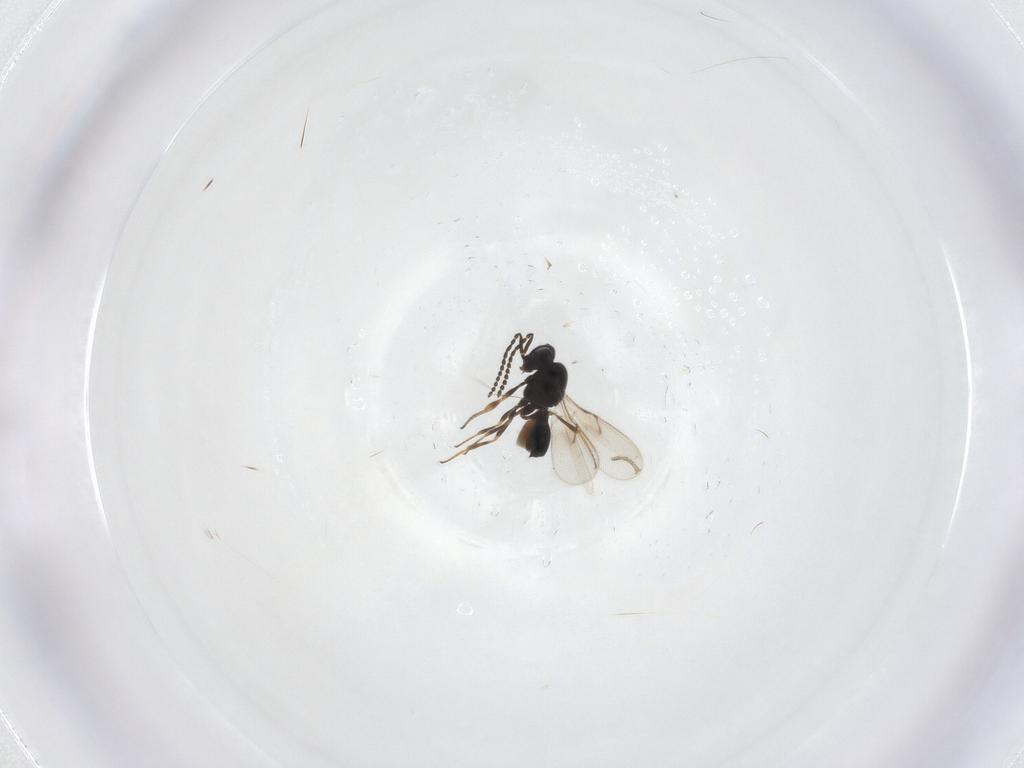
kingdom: Animalia
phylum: Arthropoda
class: Insecta
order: Hymenoptera
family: Scelionidae
